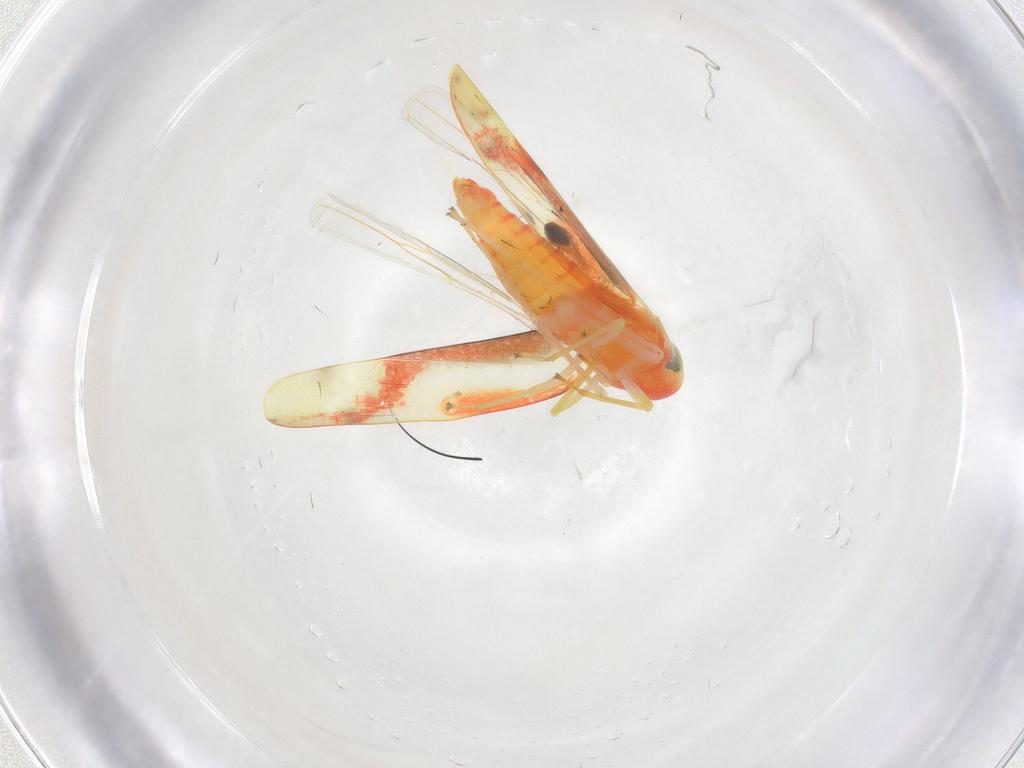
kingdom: Animalia
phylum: Arthropoda
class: Insecta
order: Hemiptera
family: Cicadellidae
